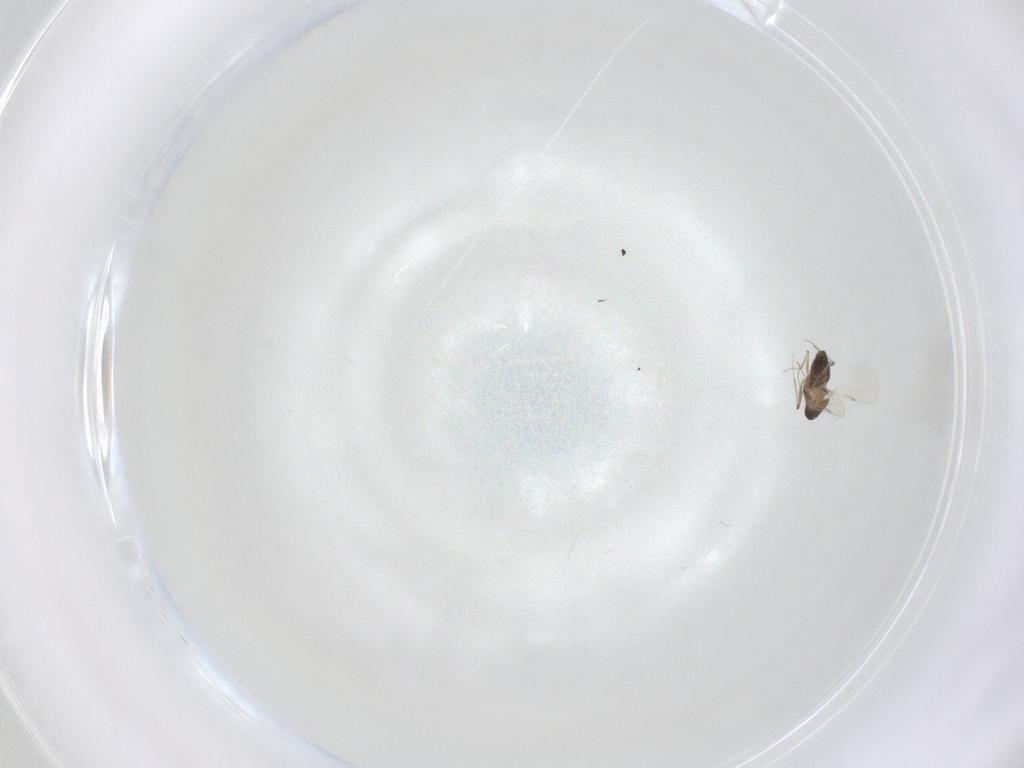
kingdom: Animalia
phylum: Arthropoda
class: Insecta
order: Diptera
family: Ceratopogonidae
